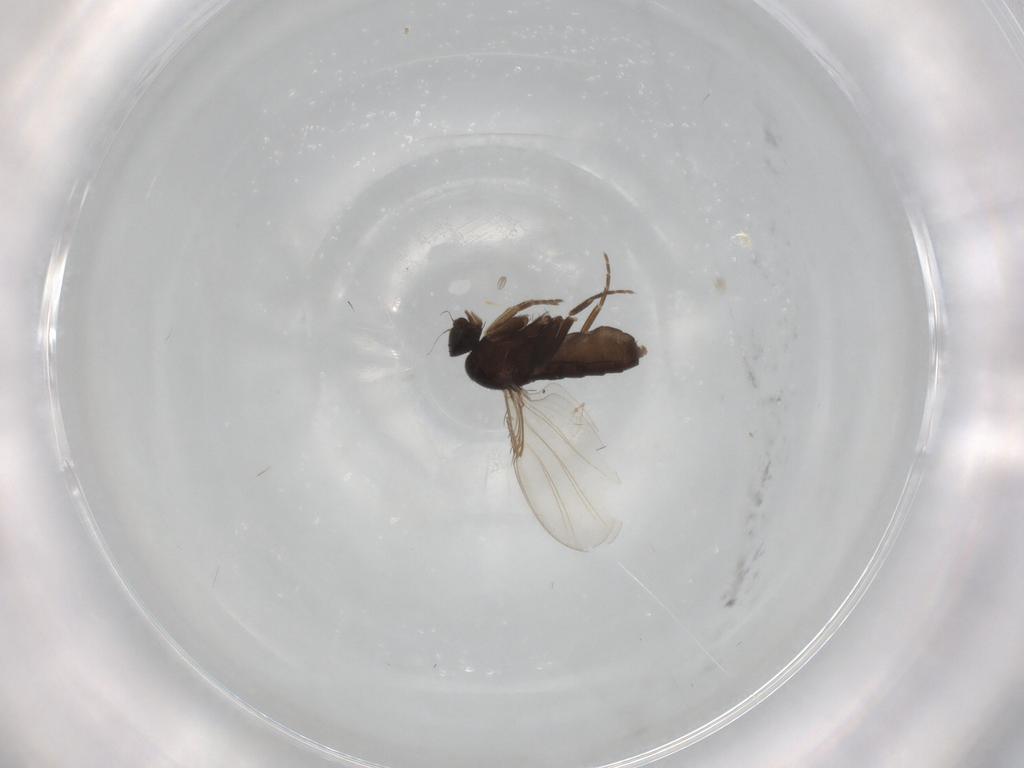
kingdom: Animalia
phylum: Arthropoda
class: Insecta
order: Diptera
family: Phoridae
